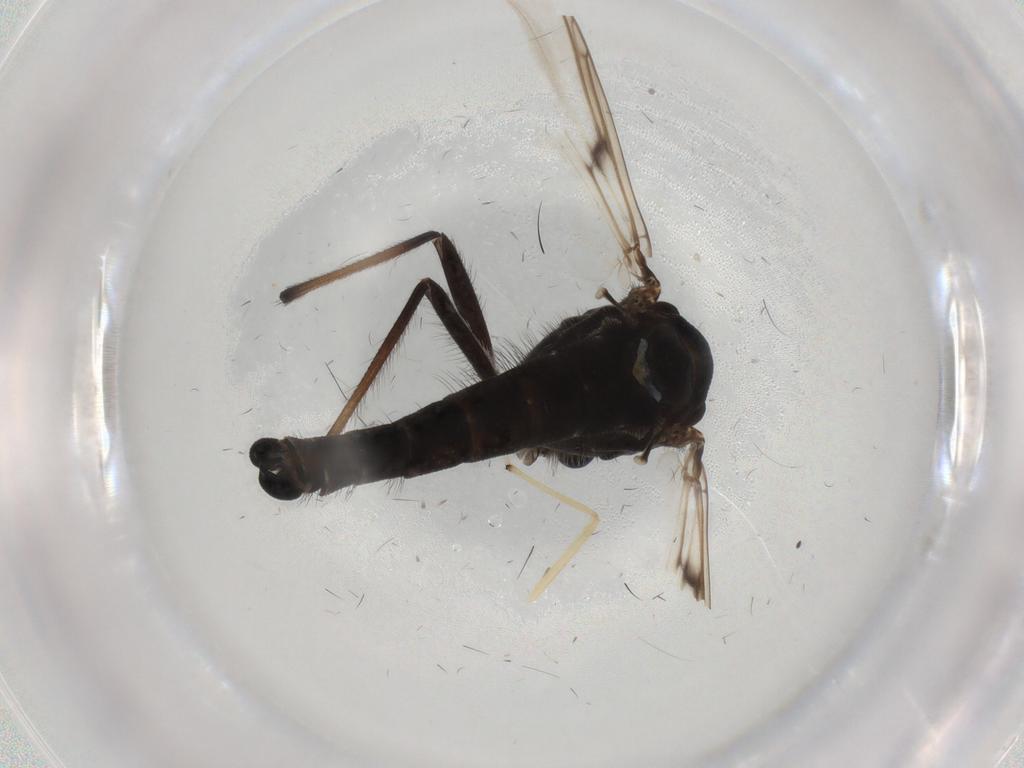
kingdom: Animalia
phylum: Arthropoda
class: Insecta
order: Diptera
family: Chironomidae
